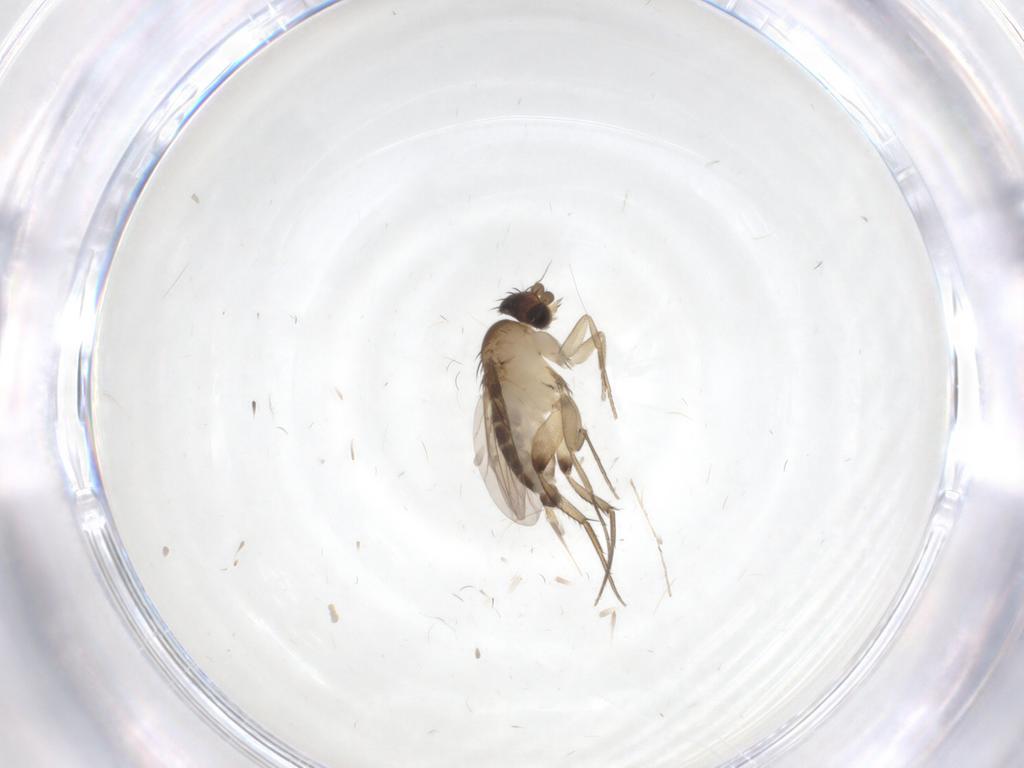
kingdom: Animalia
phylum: Arthropoda
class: Insecta
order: Diptera
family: Phoridae
